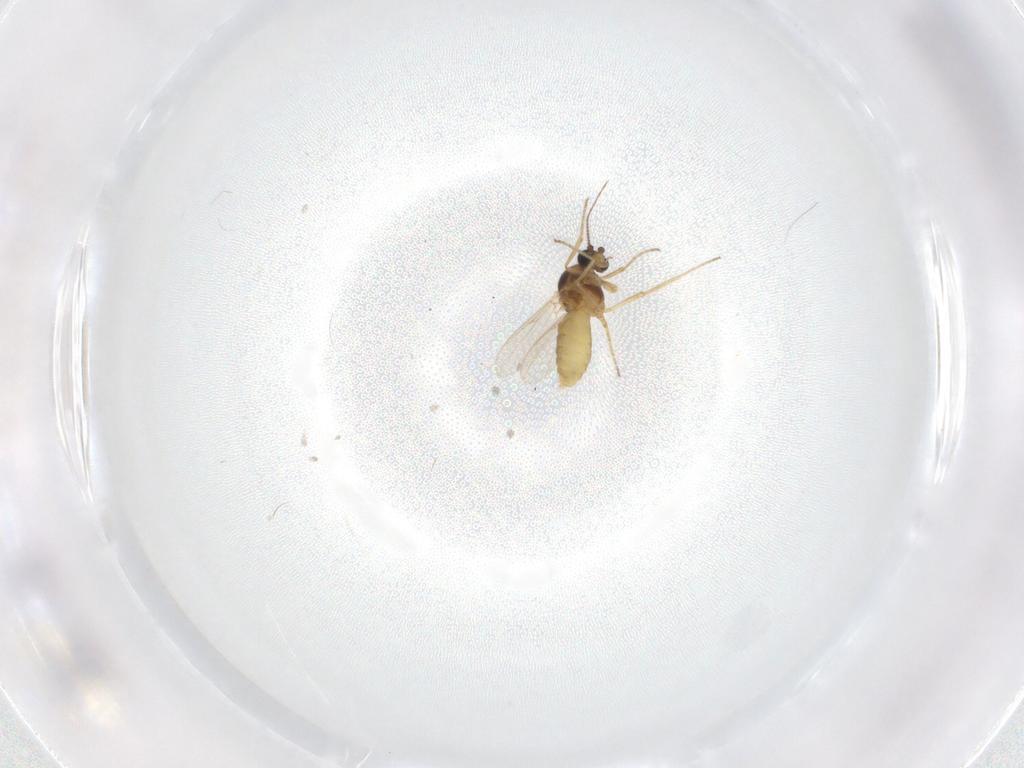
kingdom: Animalia
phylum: Arthropoda
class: Insecta
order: Diptera
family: Ceratopogonidae
